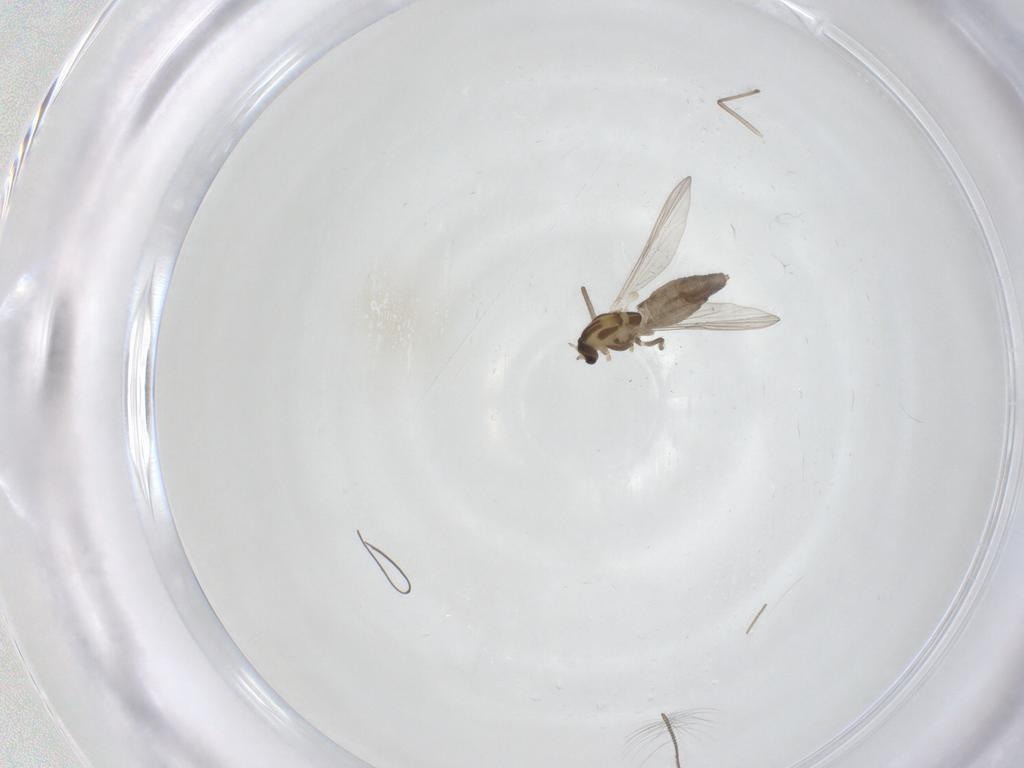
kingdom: Animalia
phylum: Arthropoda
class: Insecta
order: Diptera
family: Chironomidae
